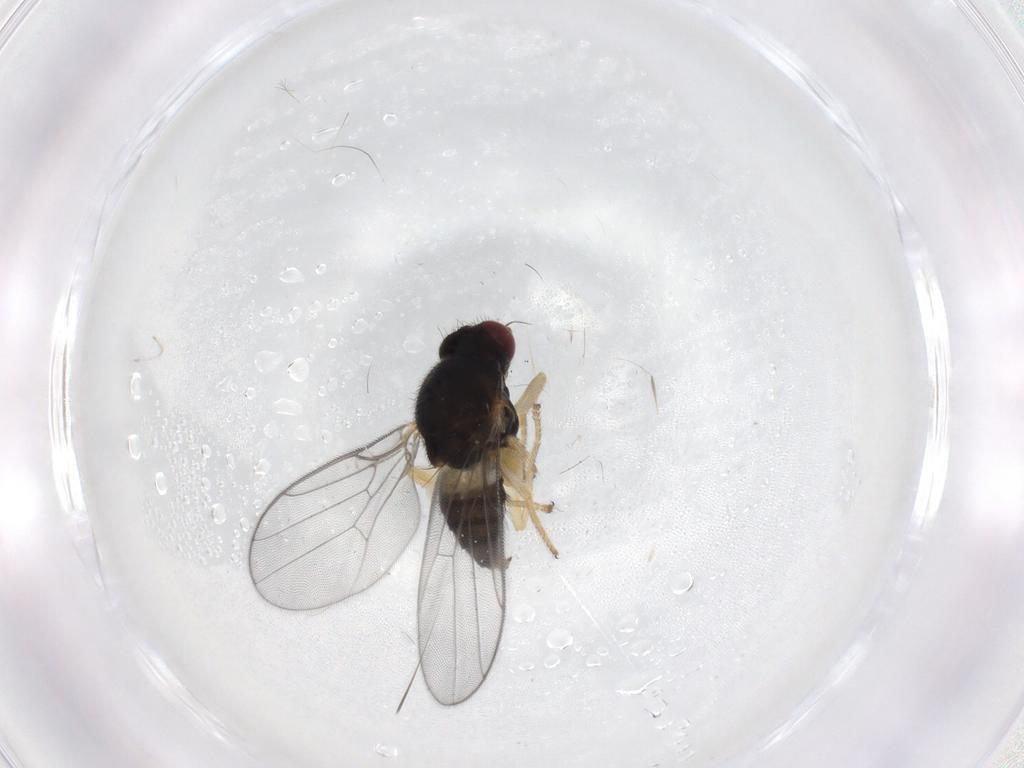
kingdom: Animalia
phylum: Arthropoda
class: Insecta
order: Diptera
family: Chloropidae
